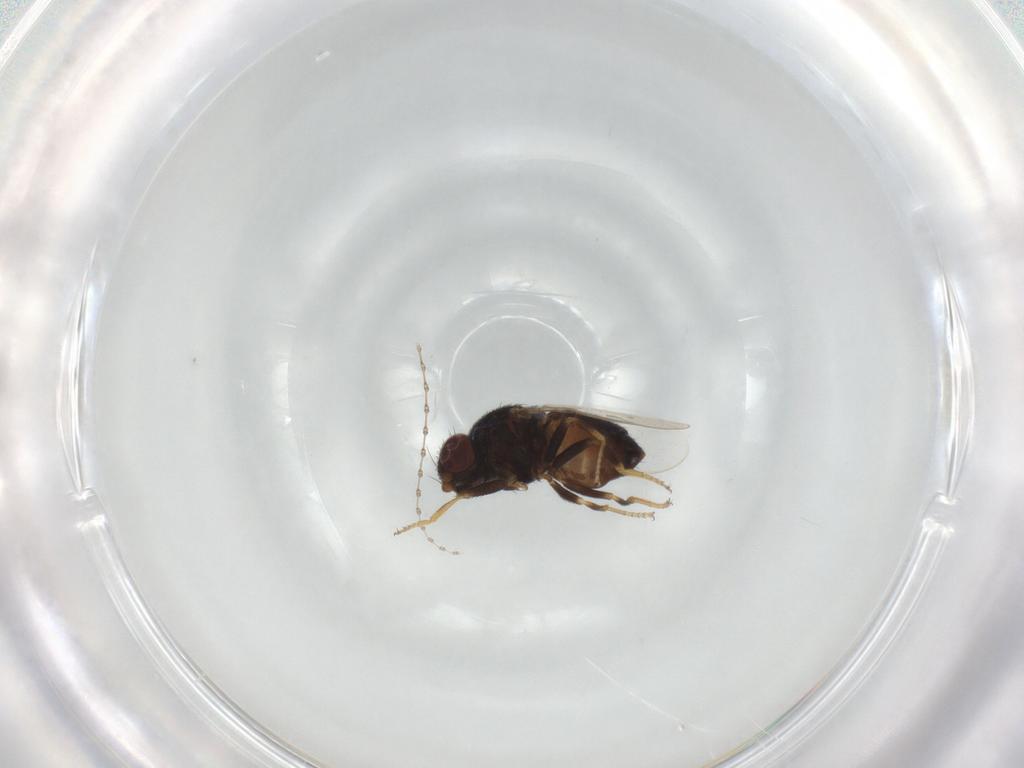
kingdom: Animalia
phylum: Arthropoda
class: Insecta
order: Diptera
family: Chloropidae
